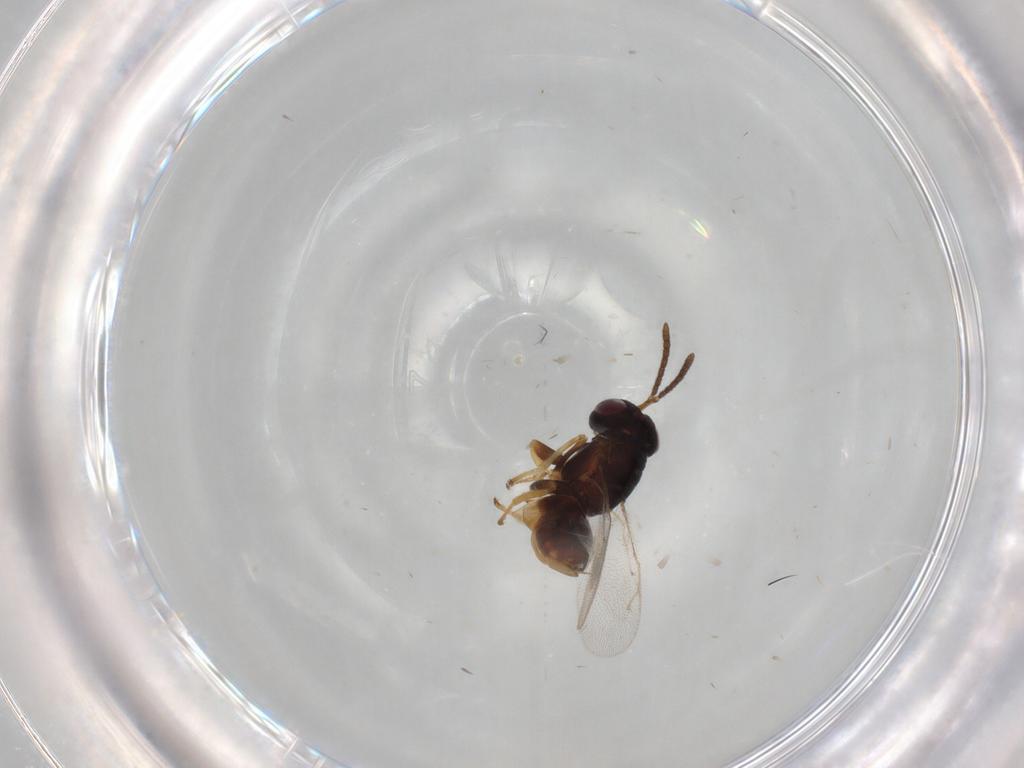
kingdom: Animalia
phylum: Arthropoda
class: Insecta
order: Hymenoptera
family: Tanaostigmatidae
